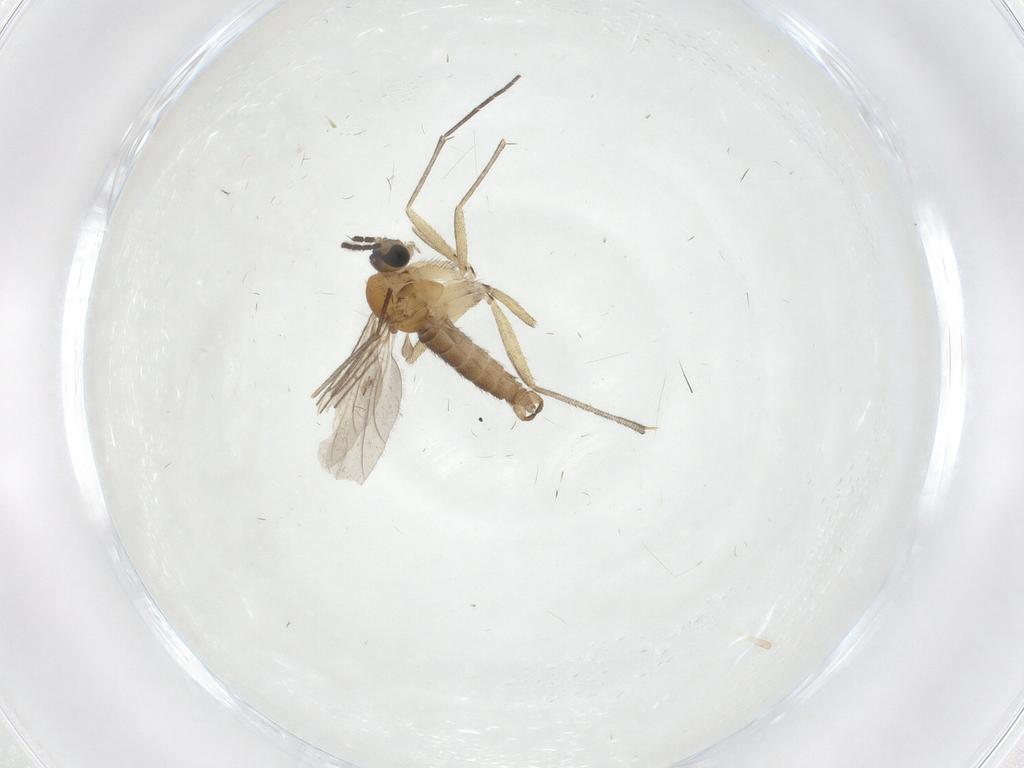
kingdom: Animalia
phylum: Arthropoda
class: Insecta
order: Diptera
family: Sciaridae
